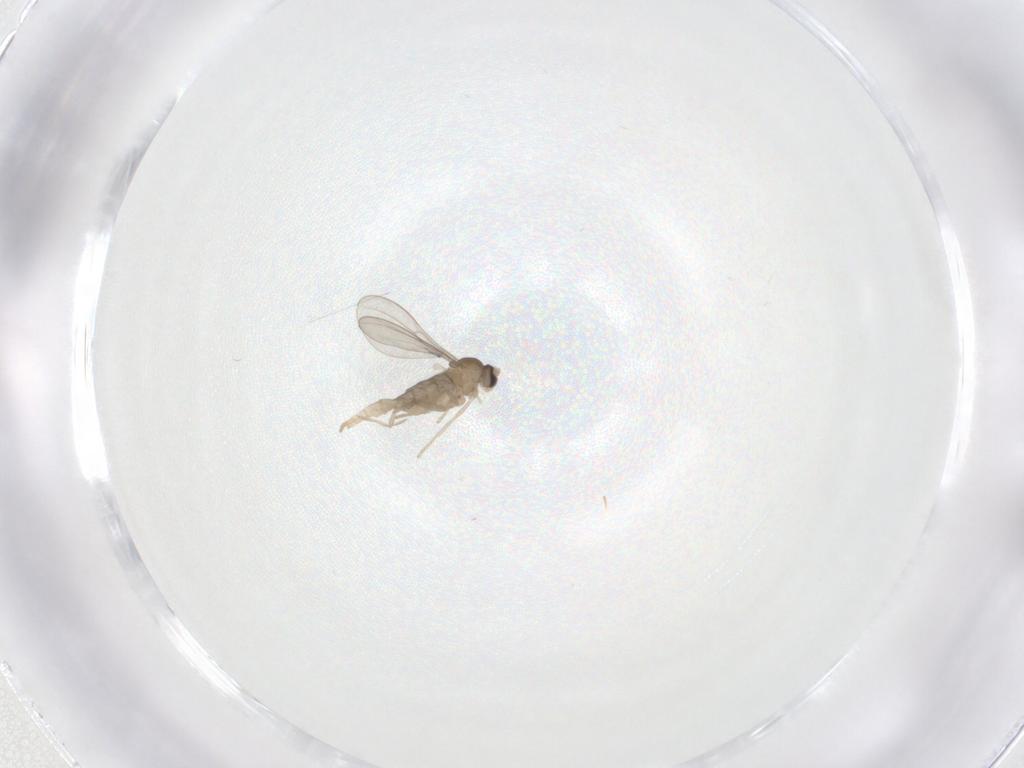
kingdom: Animalia
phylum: Arthropoda
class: Insecta
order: Diptera
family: Cecidomyiidae
